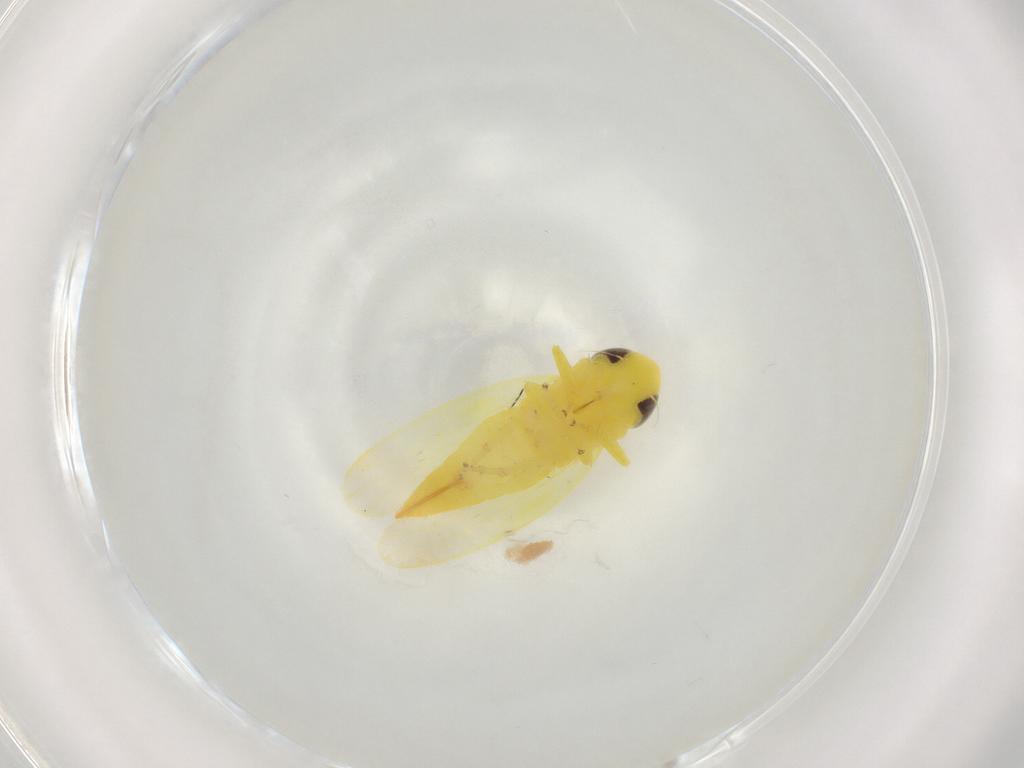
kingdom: Animalia
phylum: Arthropoda
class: Insecta
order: Hemiptera
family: Cicadellidae
